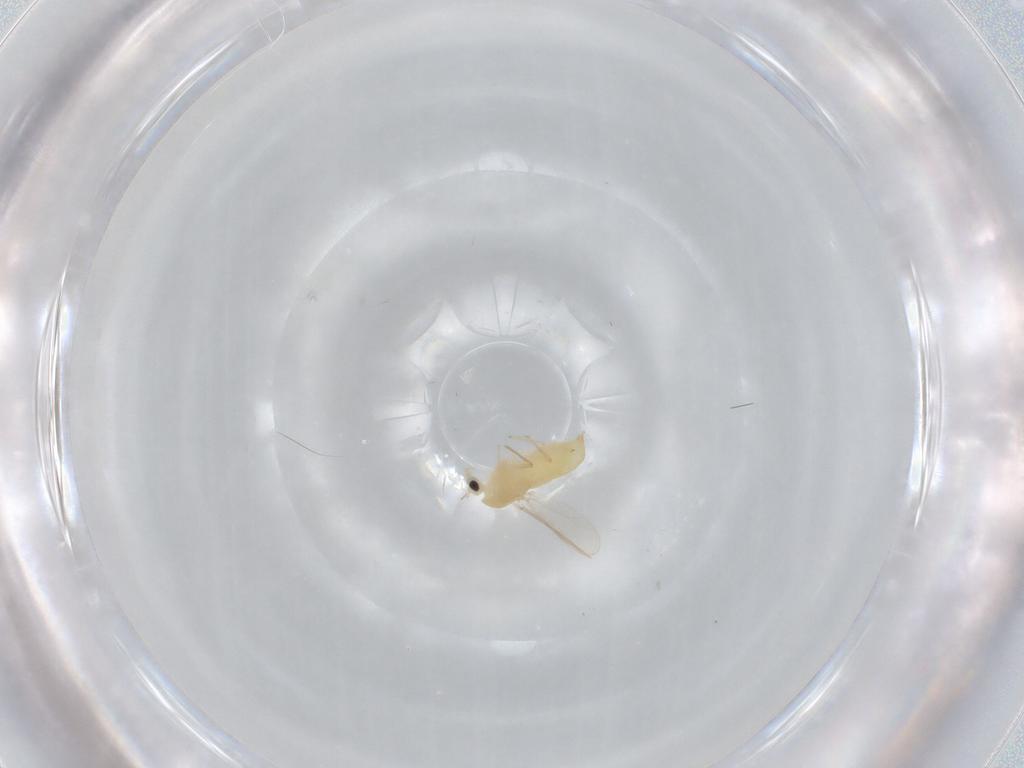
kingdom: Animalia
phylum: Arthropoda
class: Insecta
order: Diptera
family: Chironomidae
